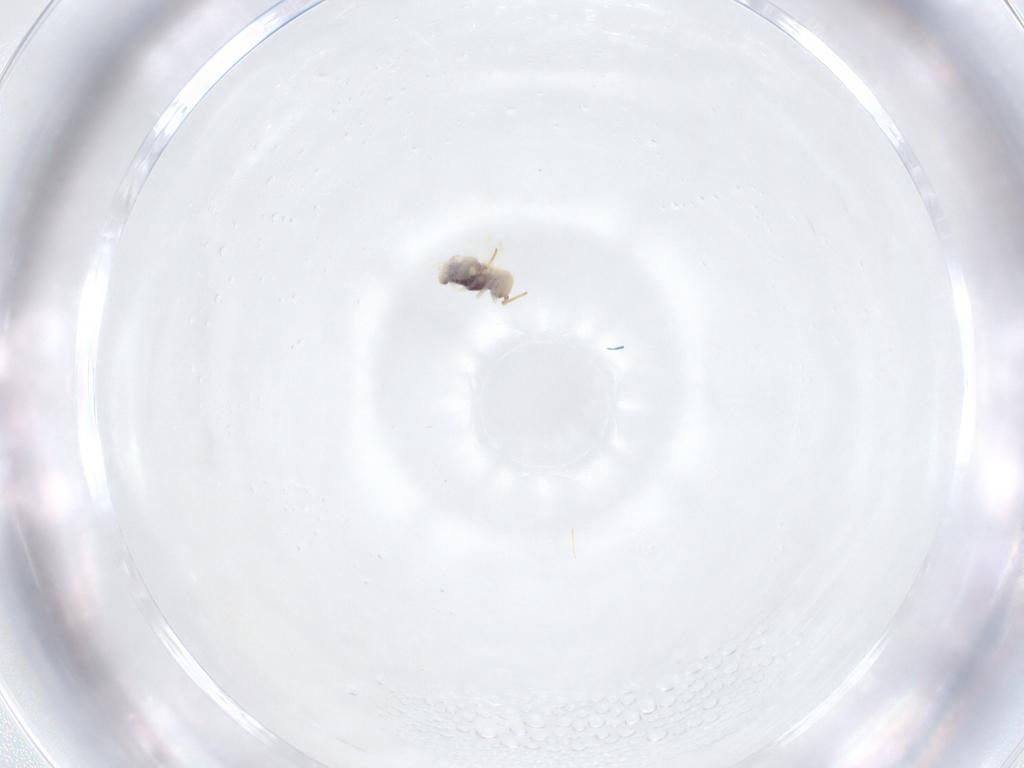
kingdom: Animalia
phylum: Arthropoda
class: Collembola
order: Symphypleona
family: Bourletiellidae
